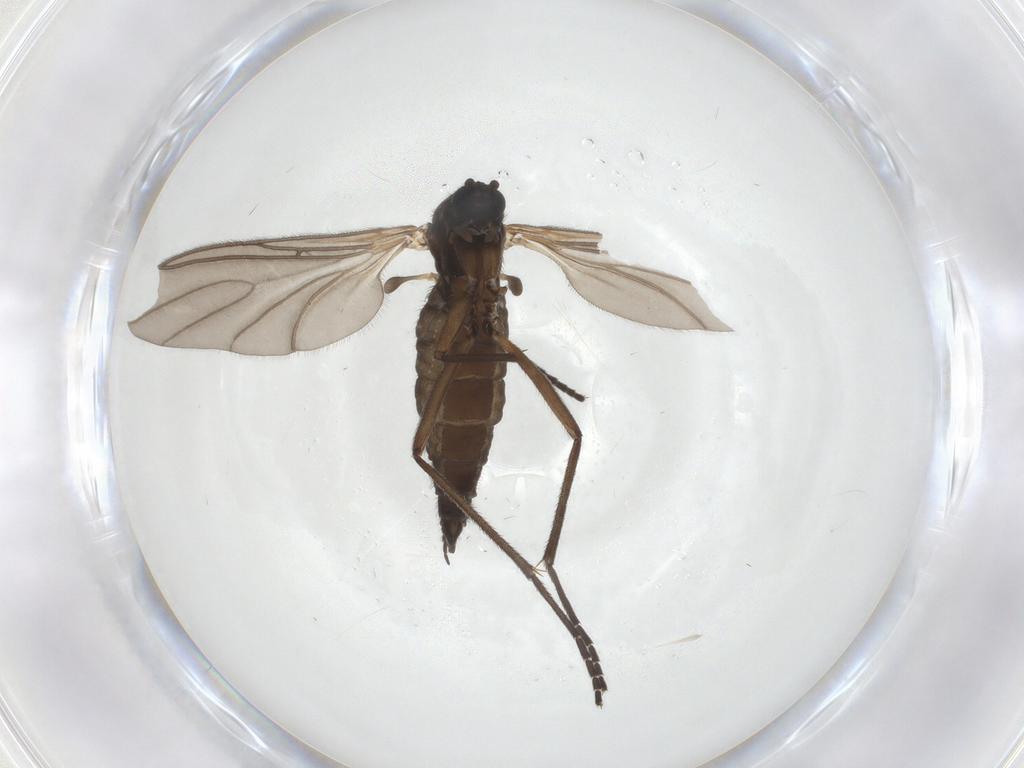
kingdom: Animalia
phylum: Arthropoda
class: Insecta
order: Diptera
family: Sciaridae
